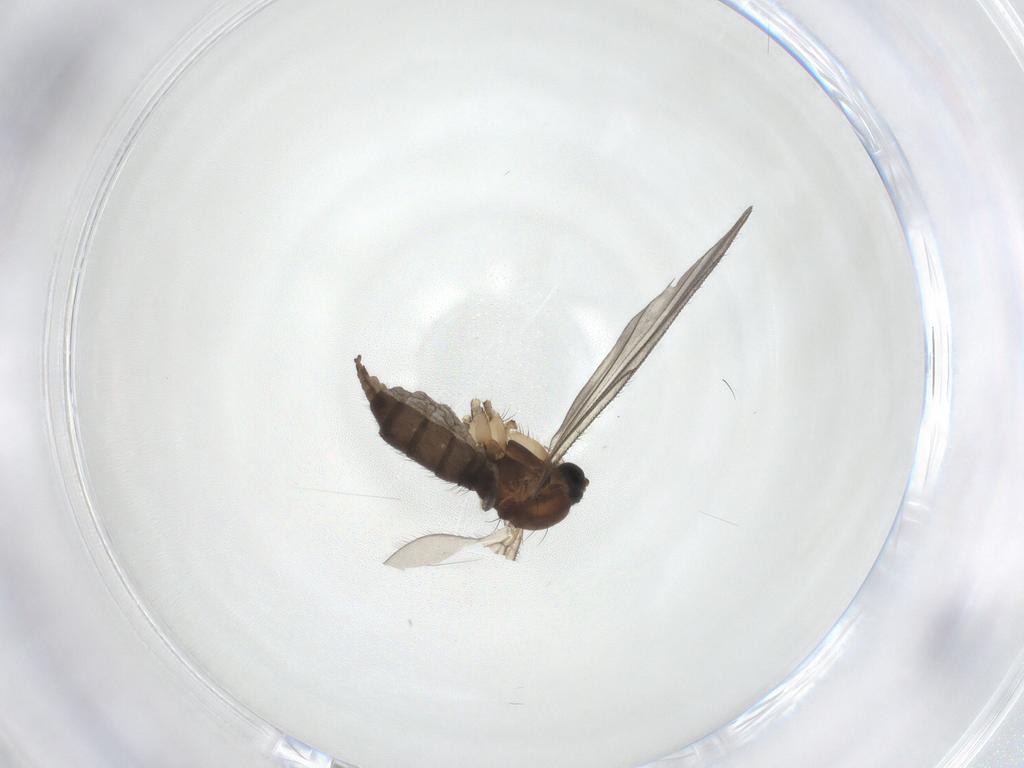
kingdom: Animalia
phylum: Arthropoda
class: Insecta
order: Diptera
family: Sciaridae
